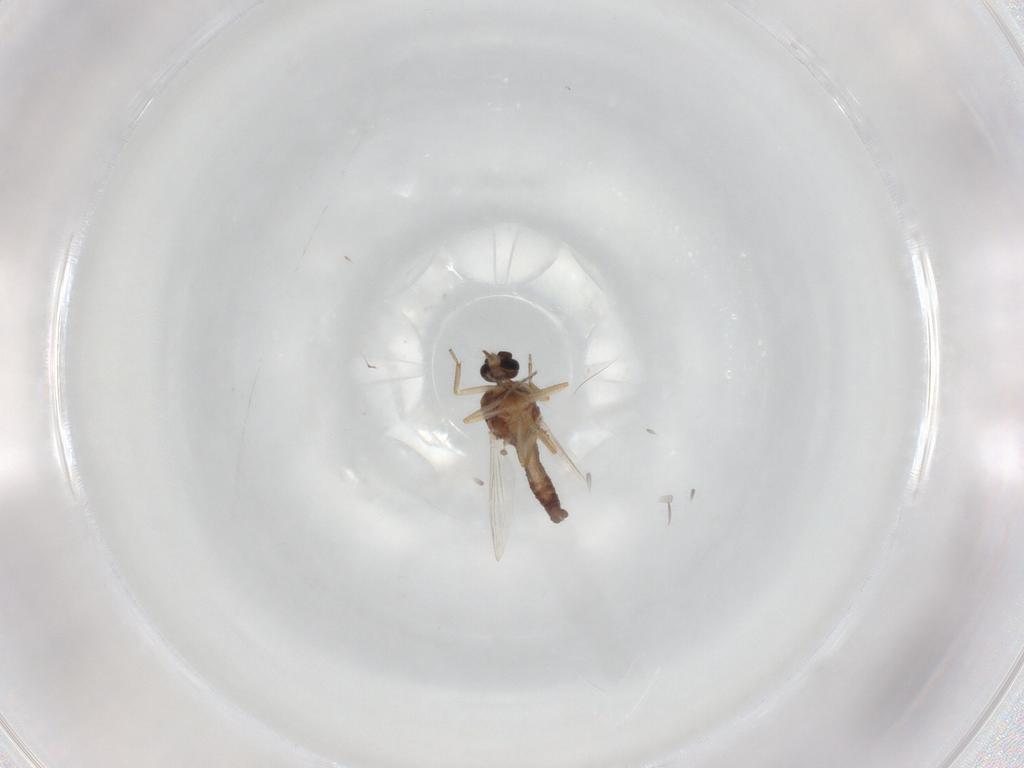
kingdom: Animalia
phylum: Arthropoda
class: Insecta
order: Diptera
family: Ceratopogonidae
